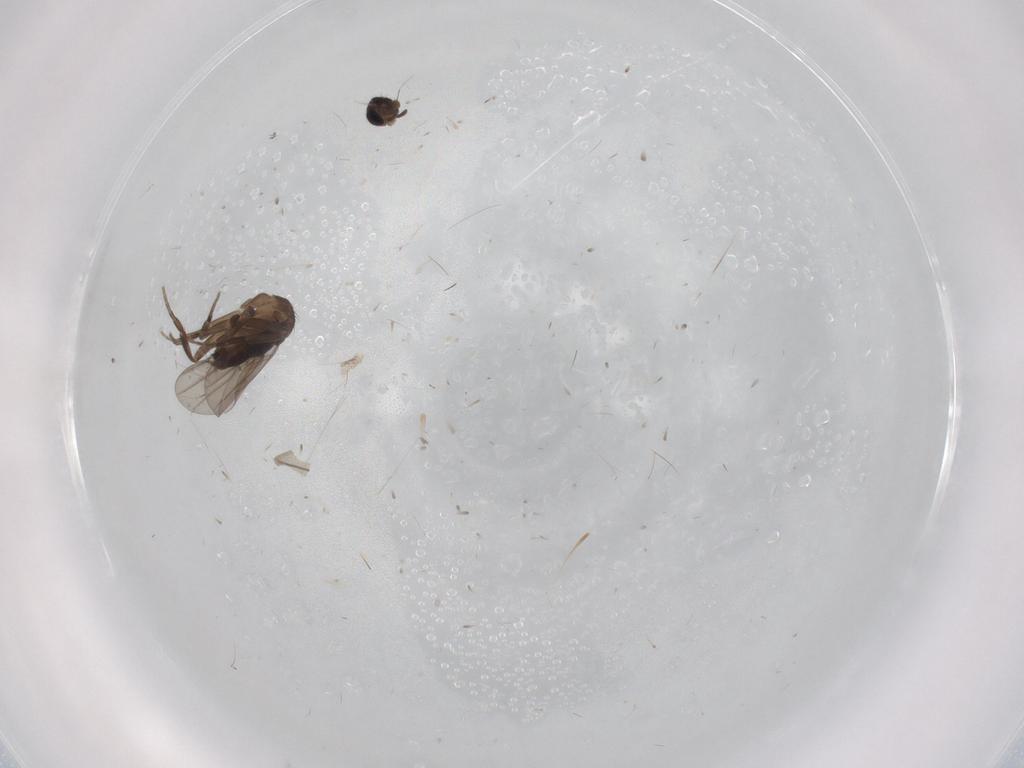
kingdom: Animalia
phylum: Arthropoda
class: Insecta
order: Diptera
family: Phoridae
